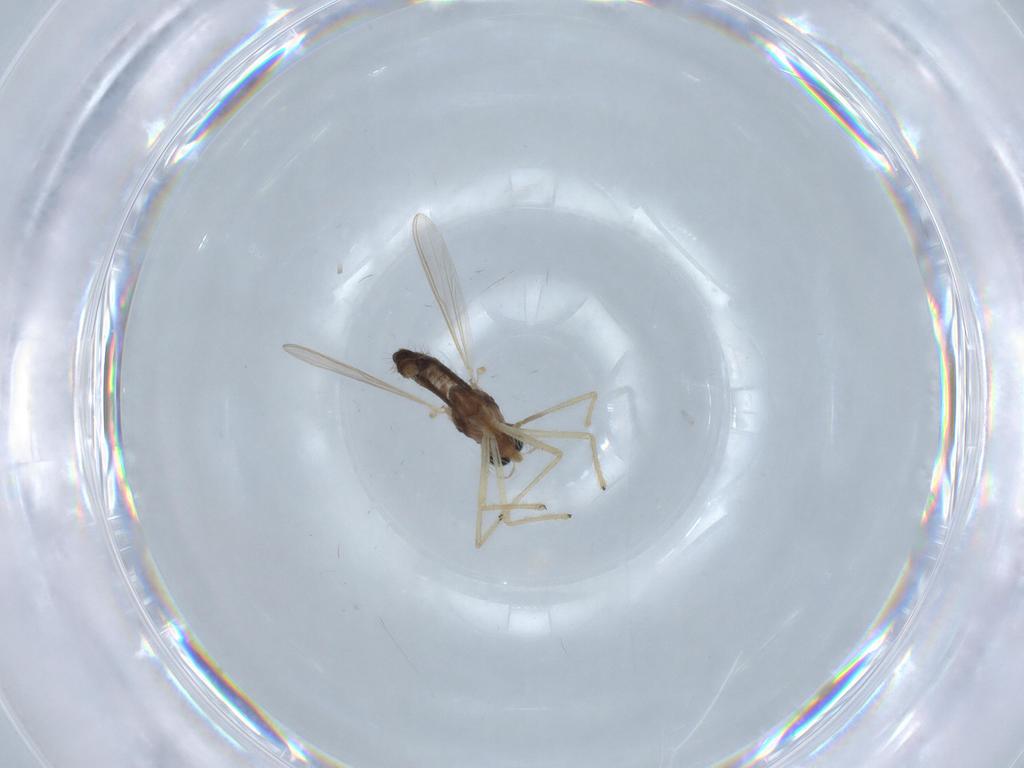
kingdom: Animalia
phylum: Arthropoda
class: Insecta
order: Diptera
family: Chironomidae
